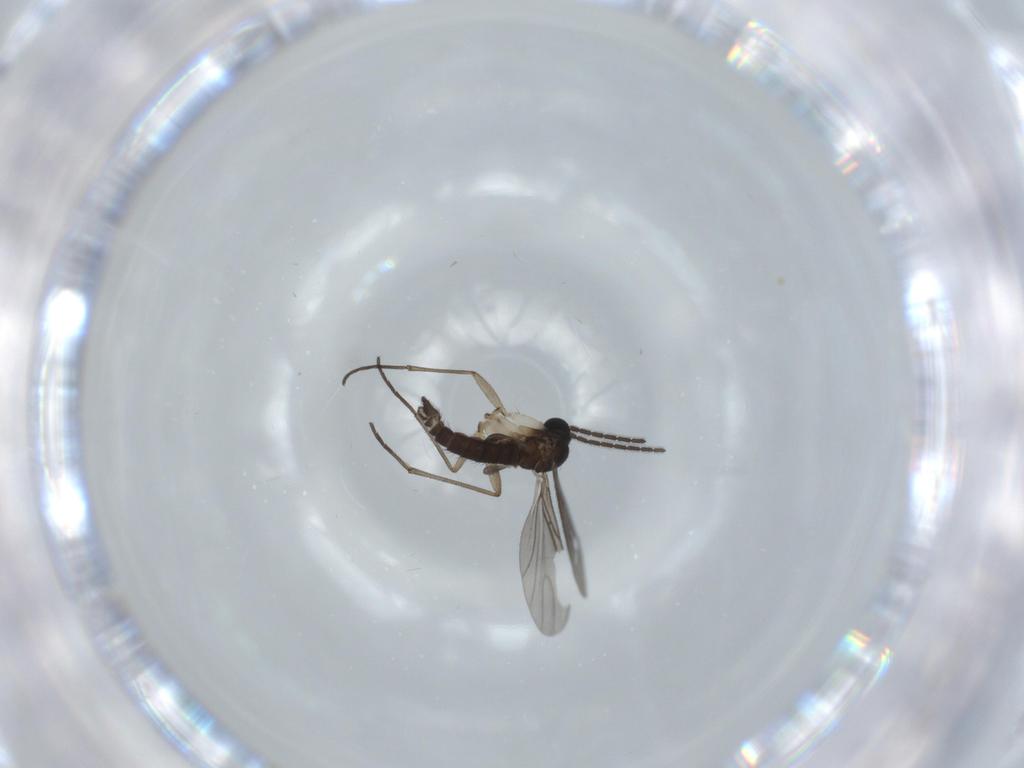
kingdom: Animalia
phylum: Arthropoda
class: Insecta
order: Diptera
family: Sciaridae
